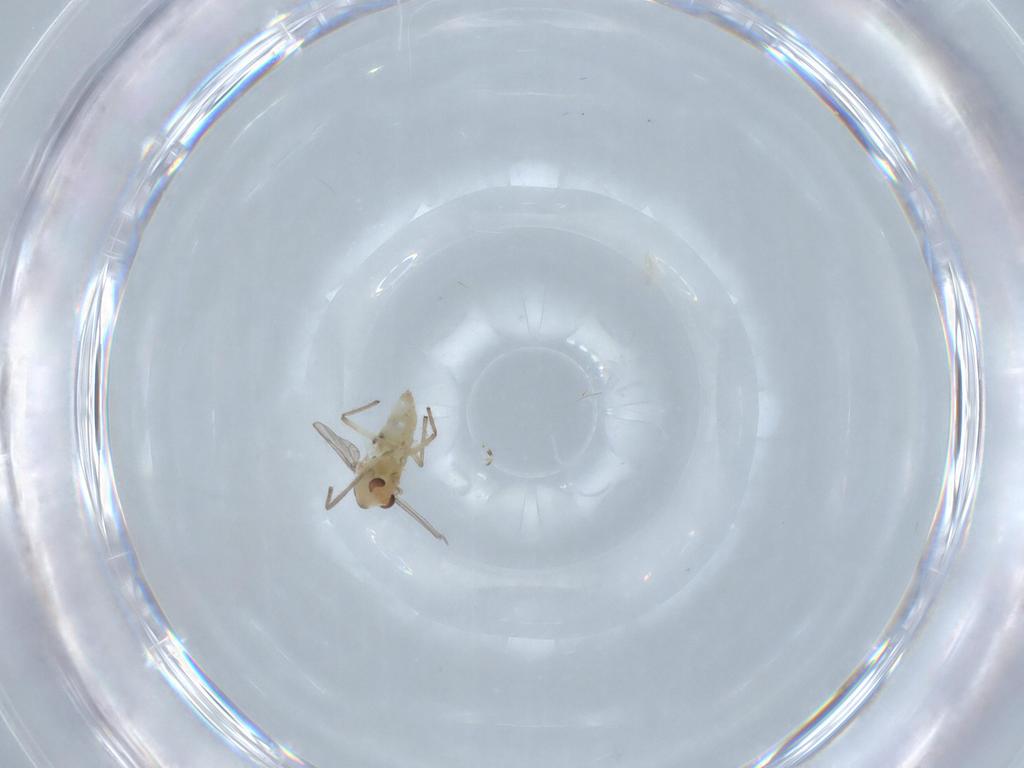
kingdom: Animalia
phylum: Arthropoda
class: Insecta
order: Diptera
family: Chironomidae
